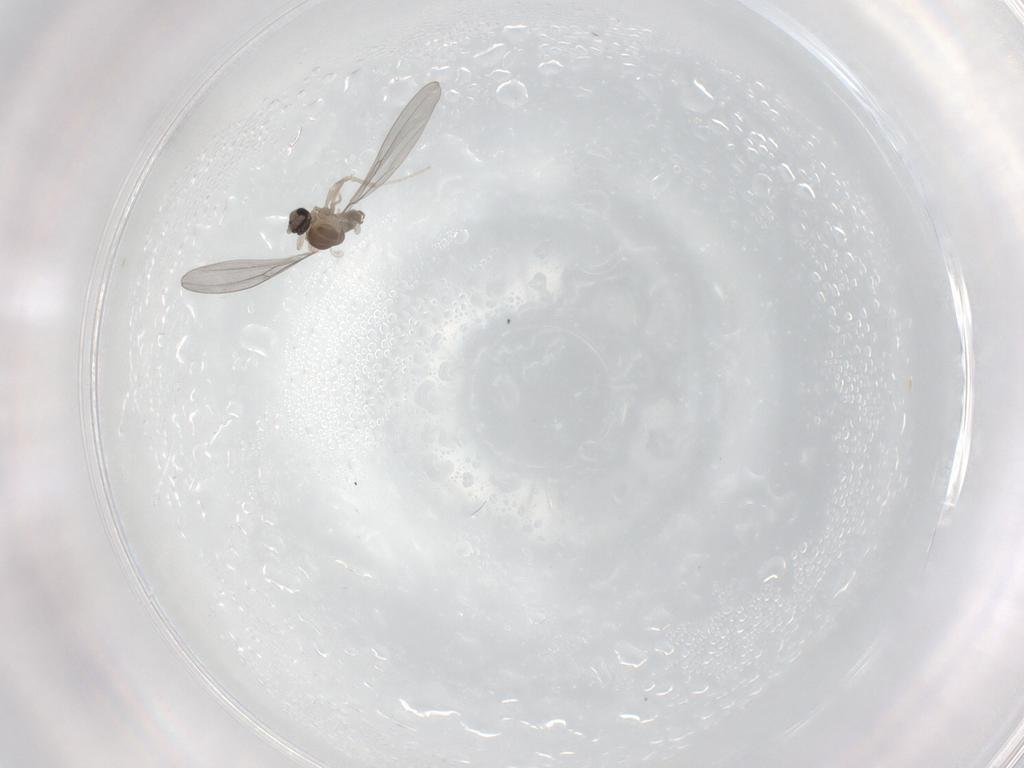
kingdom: Animalia
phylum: Arthropoda
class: Insecta
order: Diptera
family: Cecidomyiidae
